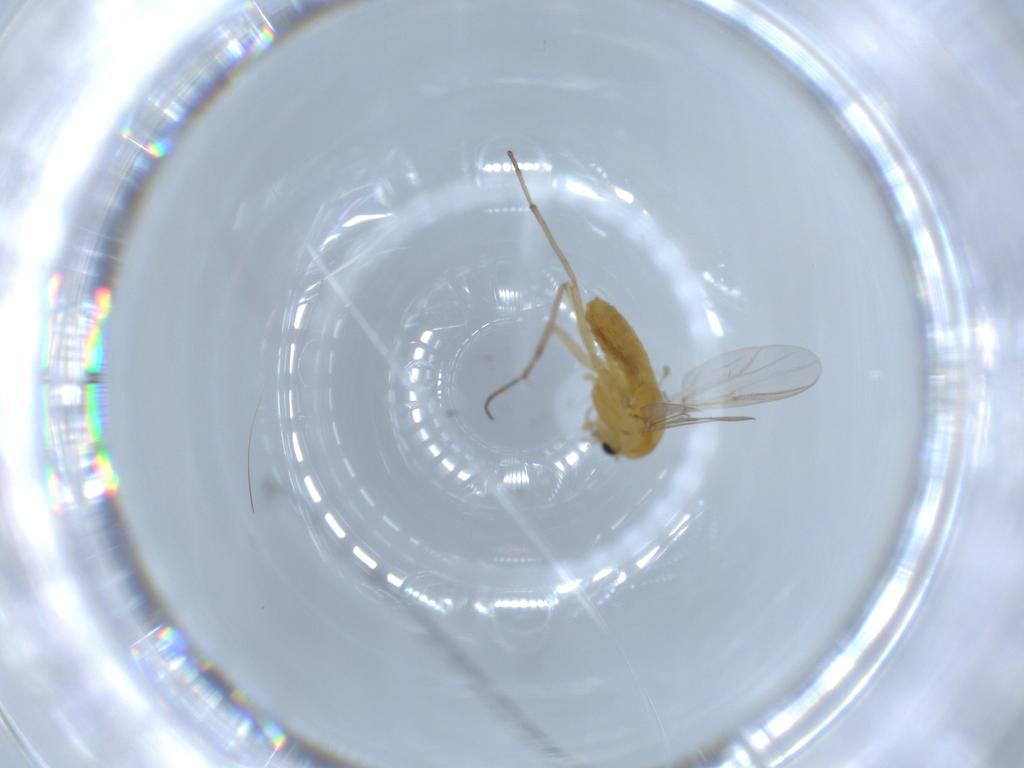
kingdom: Animalia
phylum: Arthropoda
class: Insecta
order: Diptera
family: Chironomidae
